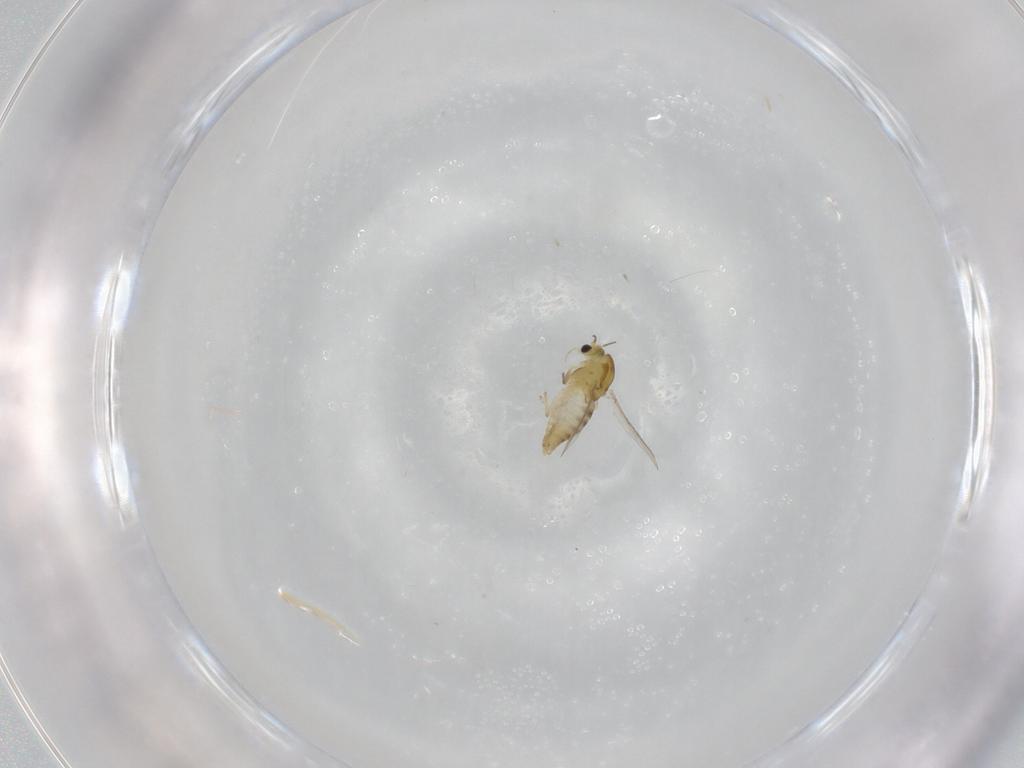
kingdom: Animalia
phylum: Arthropoda
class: Insecta
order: Diptera
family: Chironomidae
